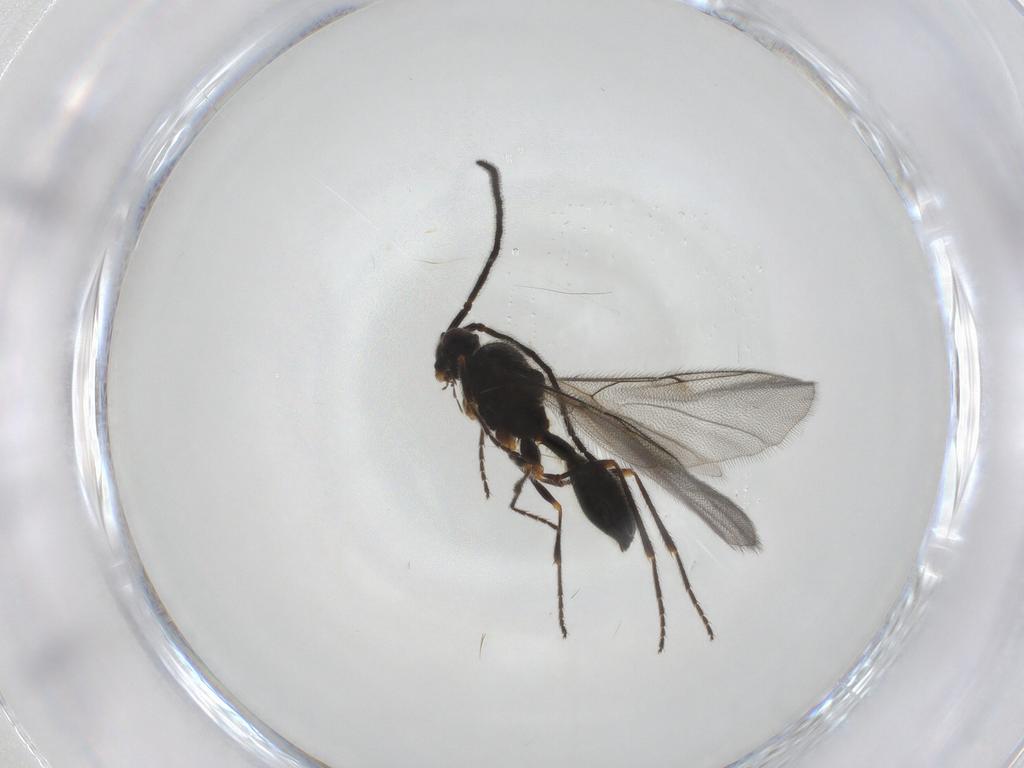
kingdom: Animalia
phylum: Arthropoda
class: Insecta
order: Hymenoptera
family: Diapriidae
